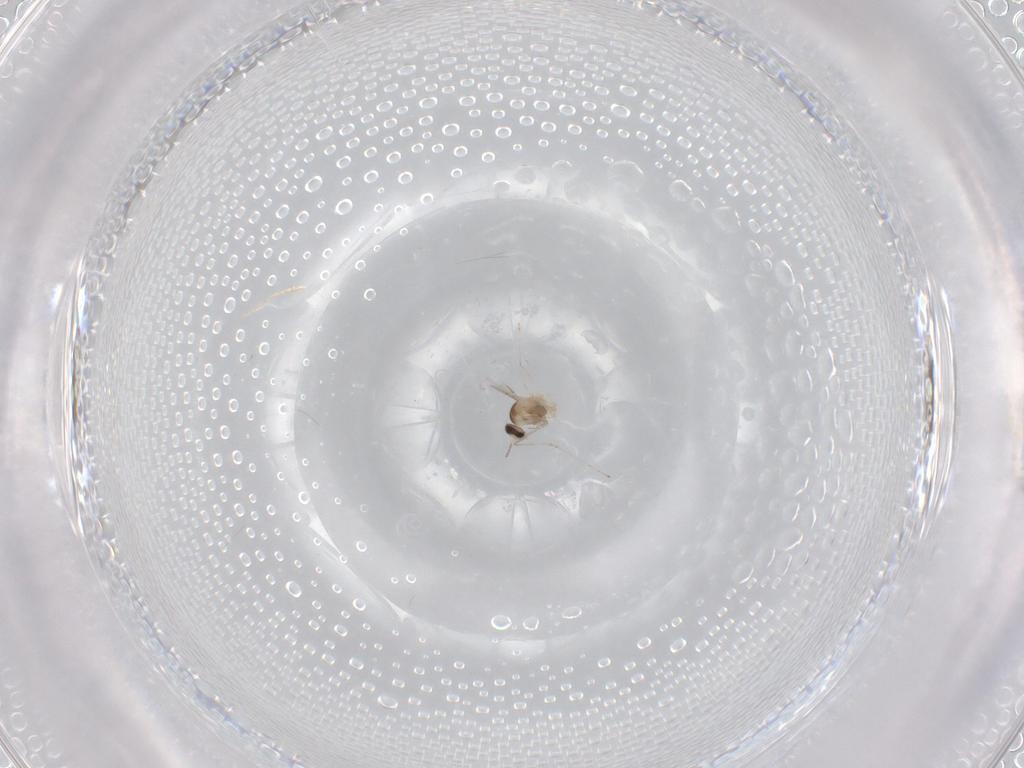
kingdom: Animalia
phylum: Arthropoda
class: Insecta
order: Diptera
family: Cecidomyiidae
